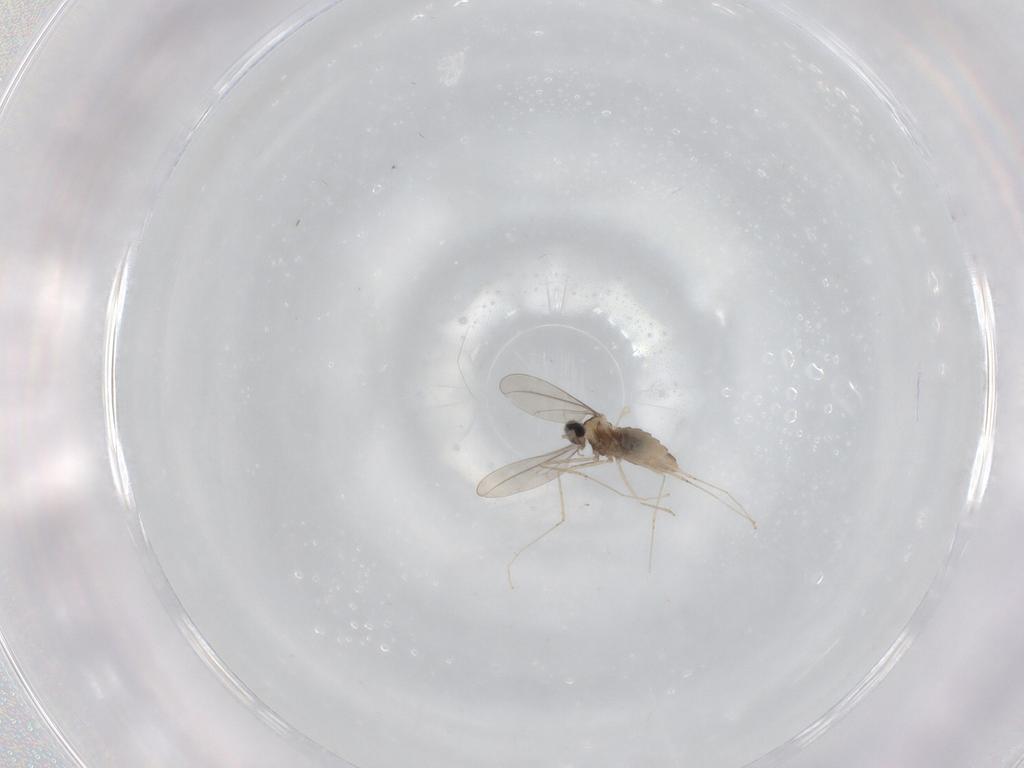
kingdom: Animalia
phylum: Arthropoda
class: Insecta
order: Diptera
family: Cecidomyiidae
